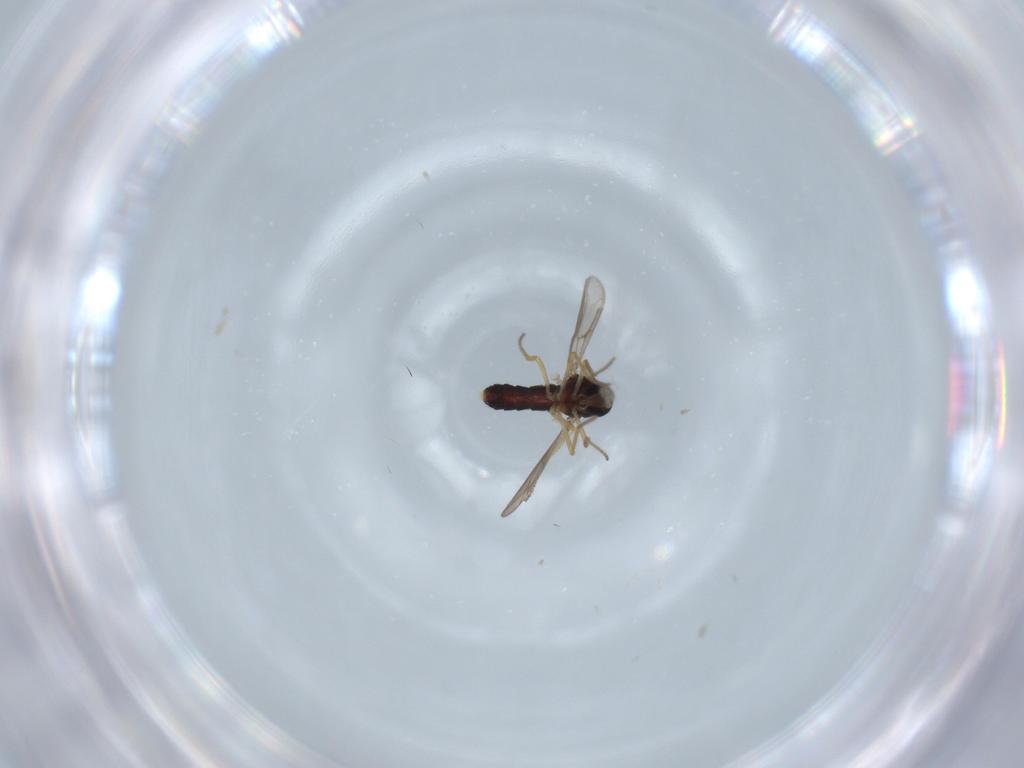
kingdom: Animalia
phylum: Arthropoda
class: Insecta
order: Diptera
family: Ceratopogonidae
